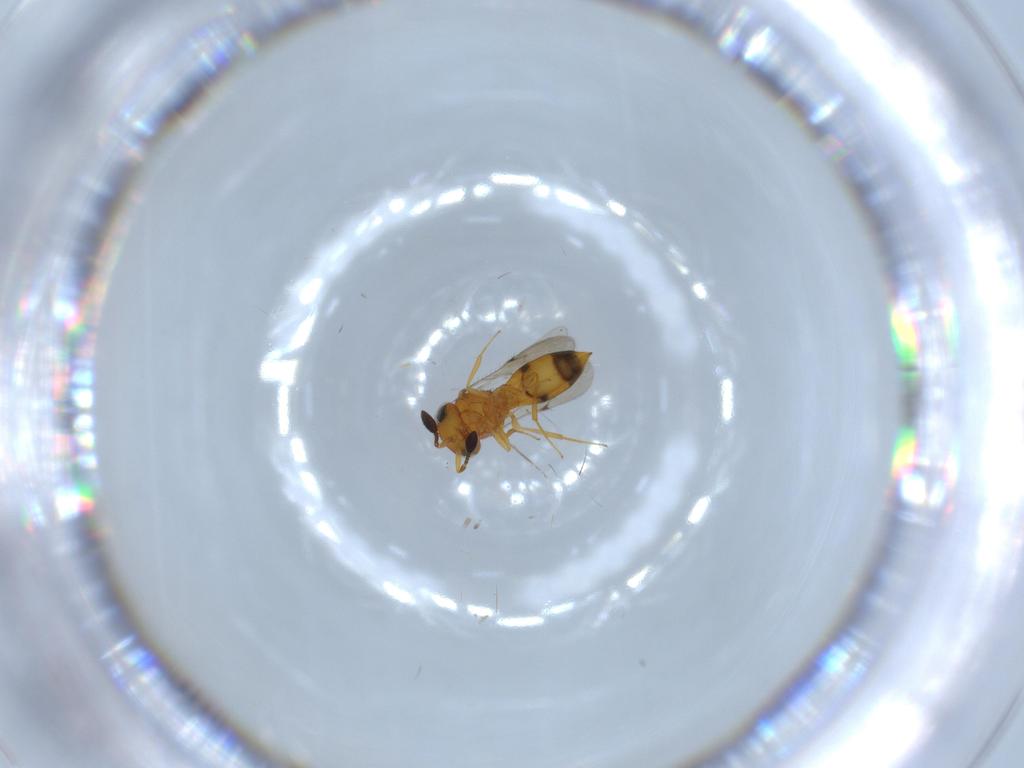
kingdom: Animalia
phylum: Arthropoda
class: Insecta
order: Hymenoptera
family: Scelionidae
